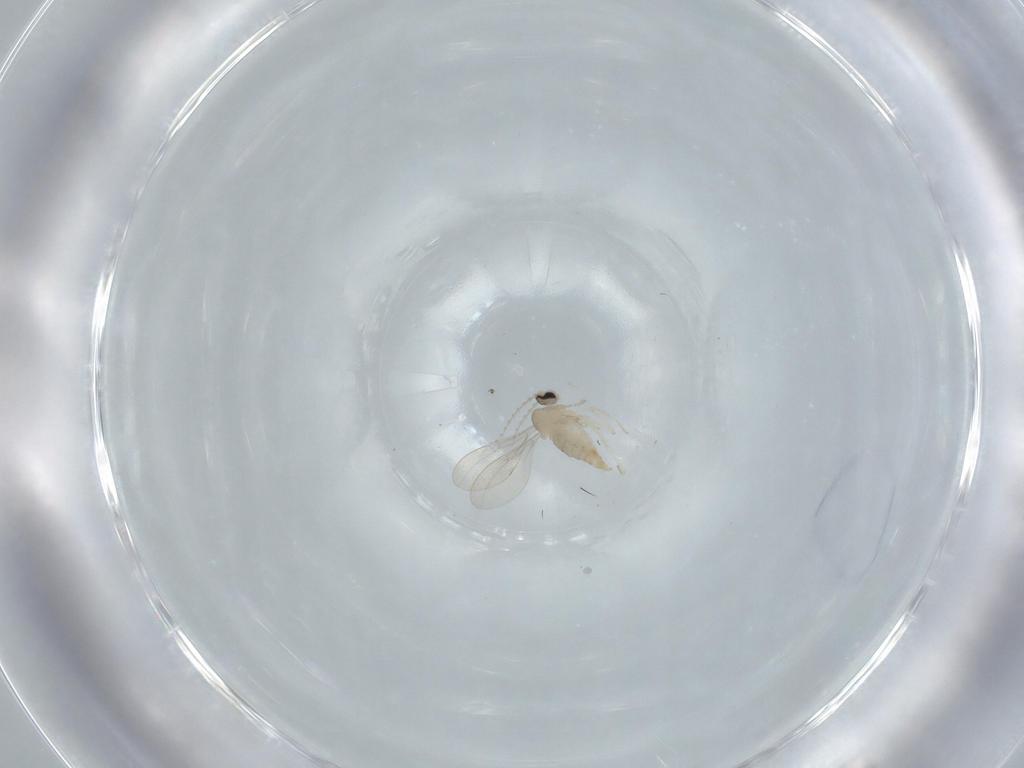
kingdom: Animalia
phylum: Arthropoda
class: Insecta
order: Diptera
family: Cecidomyiidae
